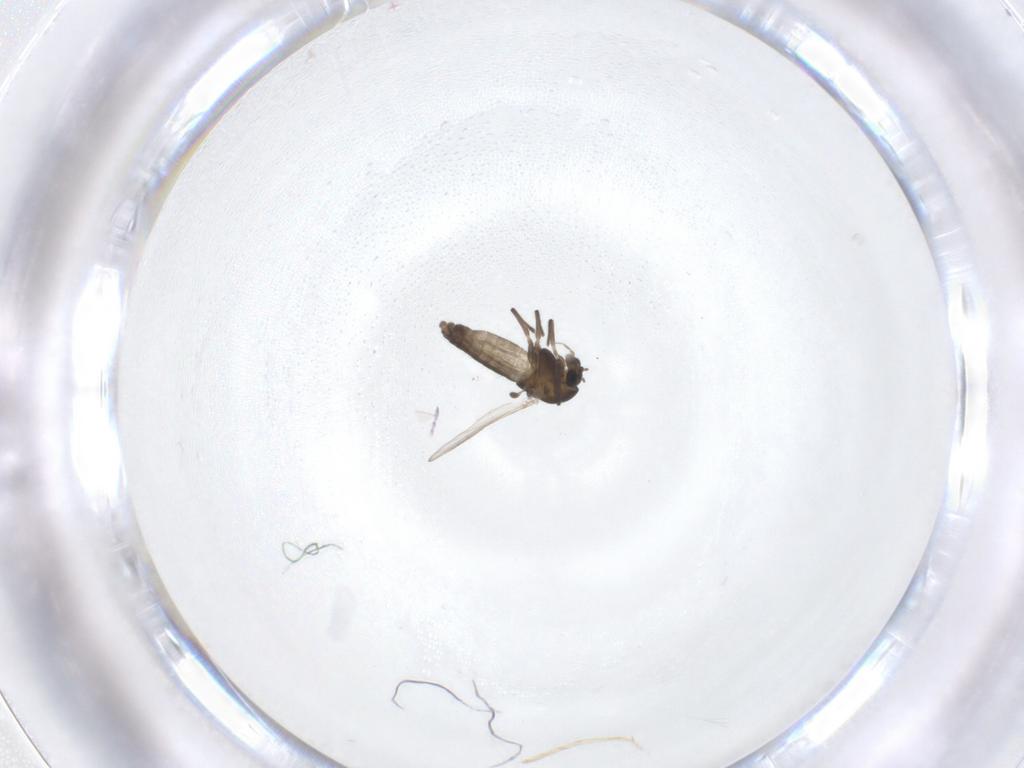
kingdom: Animalia
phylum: Arthropoda
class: Insecta
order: Diptera
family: Chironomidae
